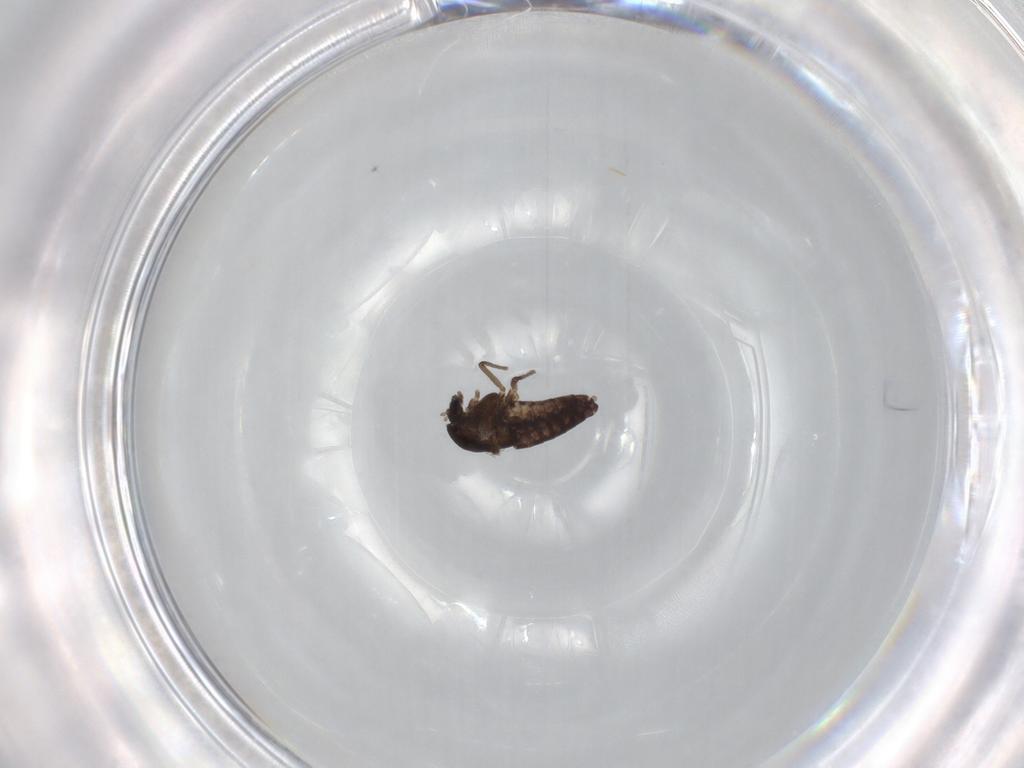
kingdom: Animalia
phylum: Arthropoda
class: Insecta
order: Diptera
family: Chironomidae
